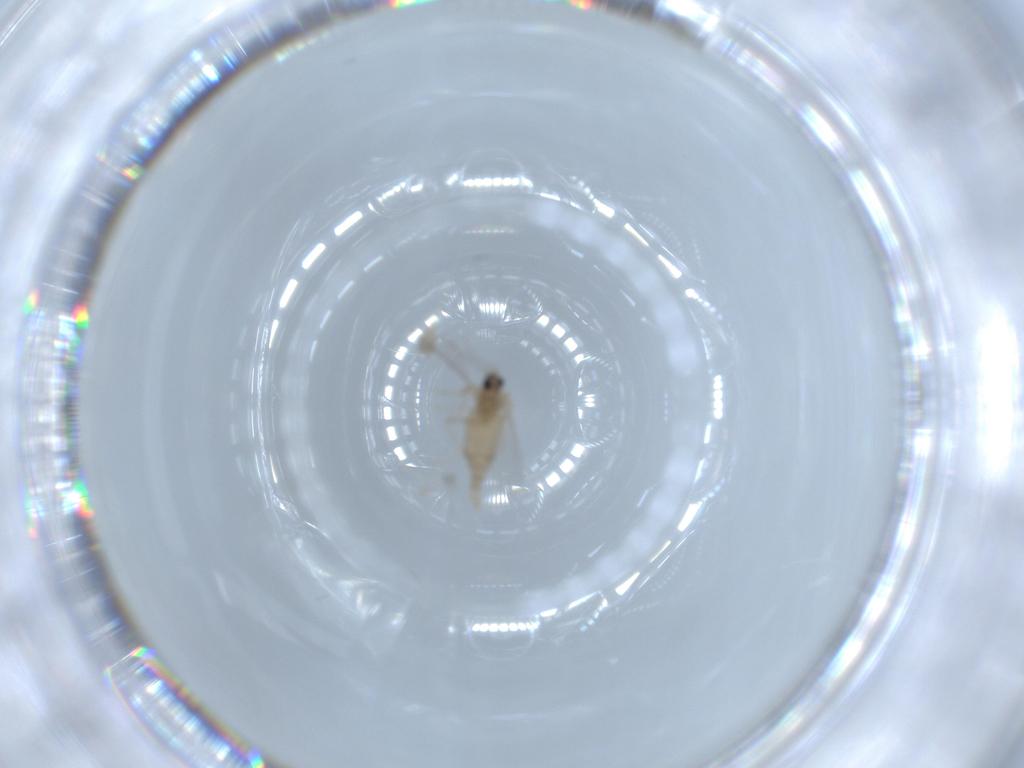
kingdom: Animalia
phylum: Arthropoda
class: Insecta
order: Diptera
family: Cecidomyiidae
